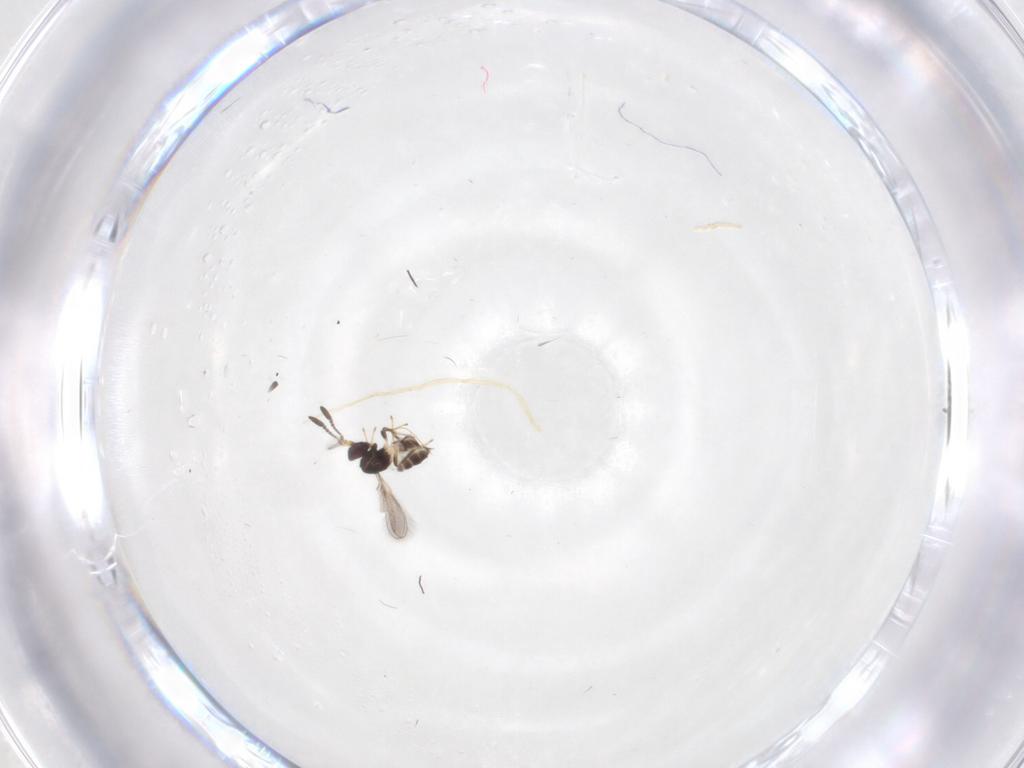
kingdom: Animalia
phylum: Arthropoda
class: Insecta
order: Hymenoptera
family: Mymaridae
